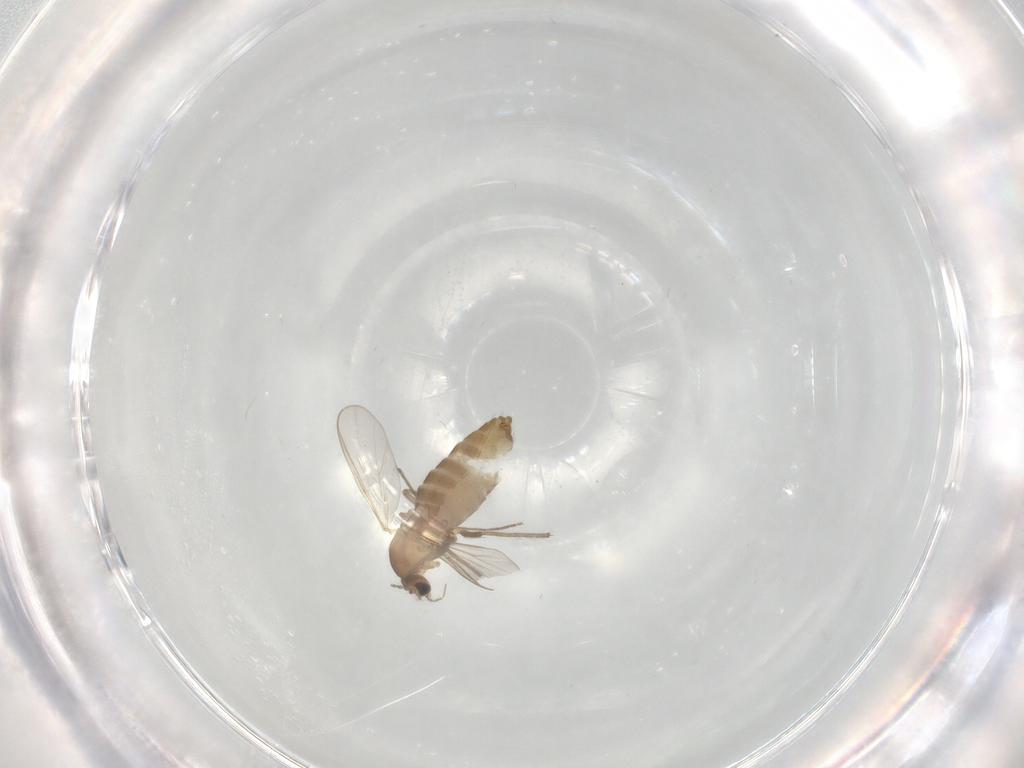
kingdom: Animalia
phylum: Arthropoda
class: Insecta
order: Diptera
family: Chironomidae
